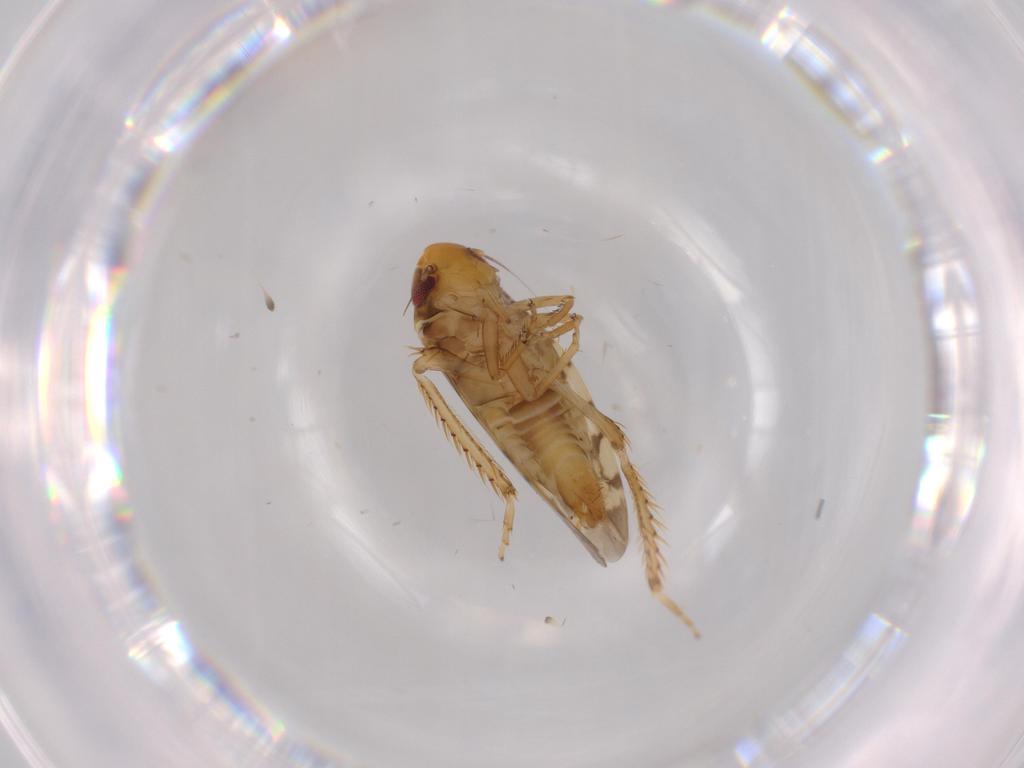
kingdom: Animalia
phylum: Arthropoda
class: Insecta
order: Hemiptera
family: Cicadellidae
